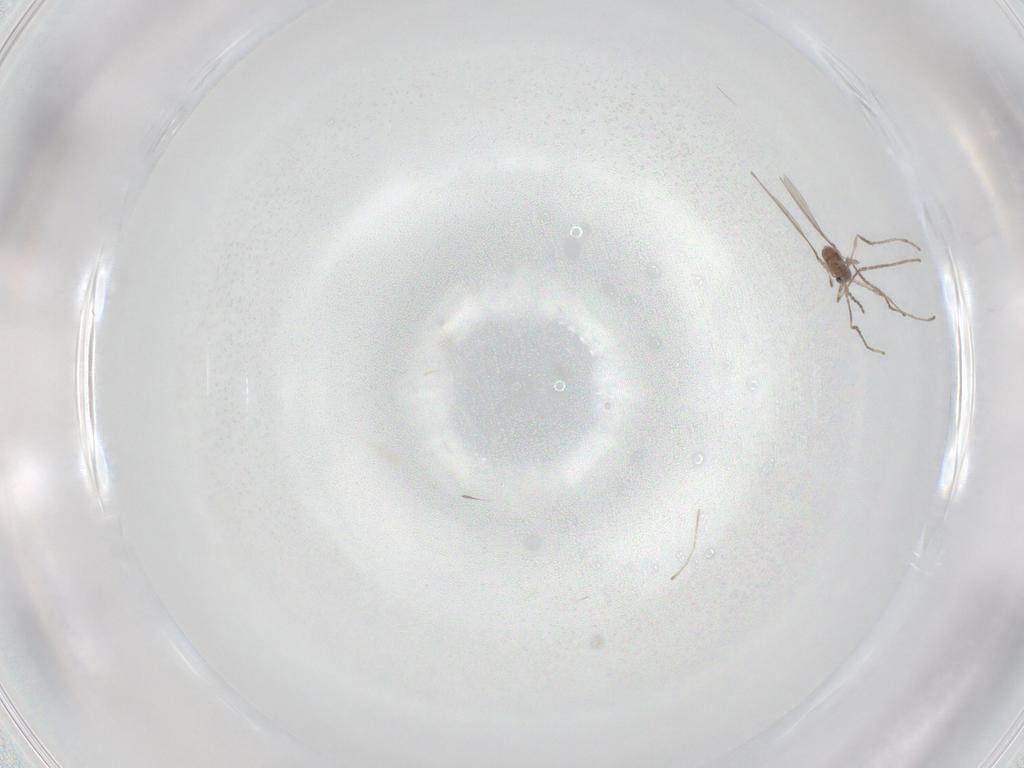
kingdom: Animalia
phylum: Arthropoda
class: Insecta
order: Diptera
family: Cecidomyiidae
